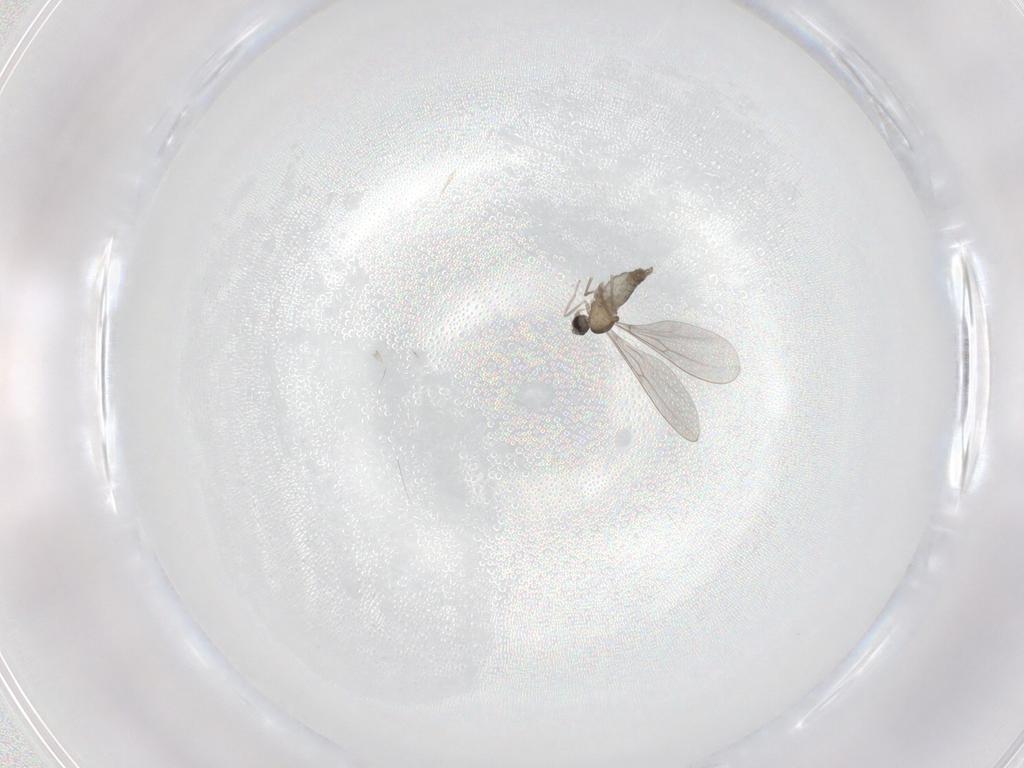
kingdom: Animalia
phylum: Arthropoda
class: Insecta
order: Diptera
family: Cecidomyiidae
